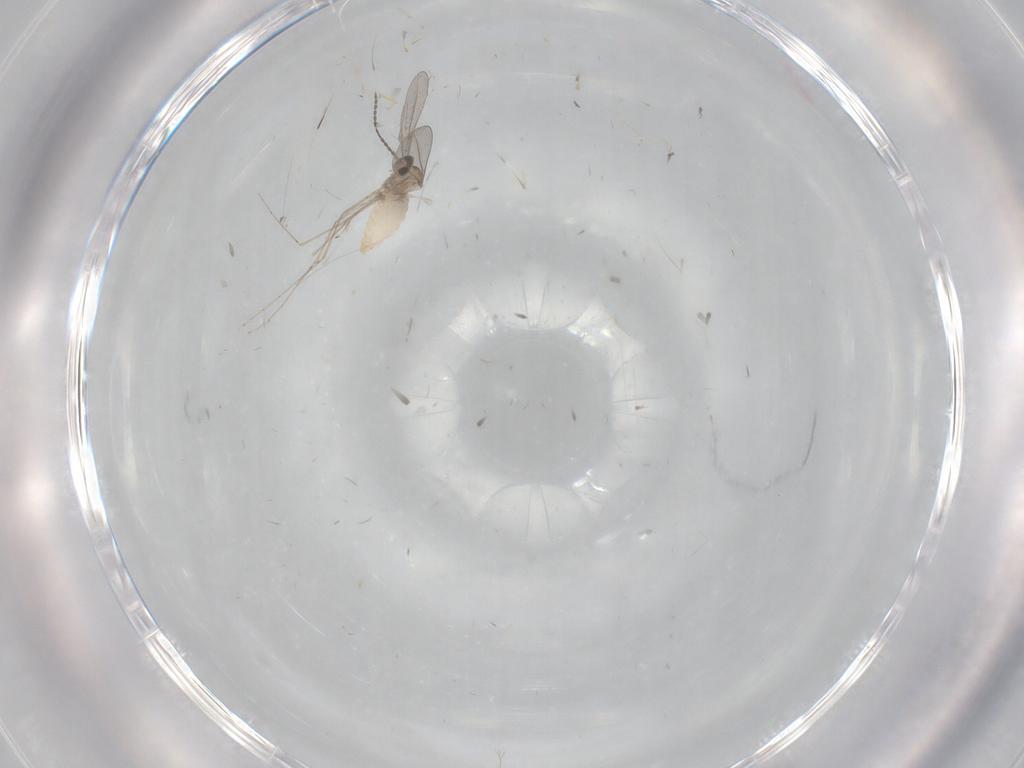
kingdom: Animalia
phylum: Arthropoda
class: Insecta
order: Diptera
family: Cecidomyiidae
